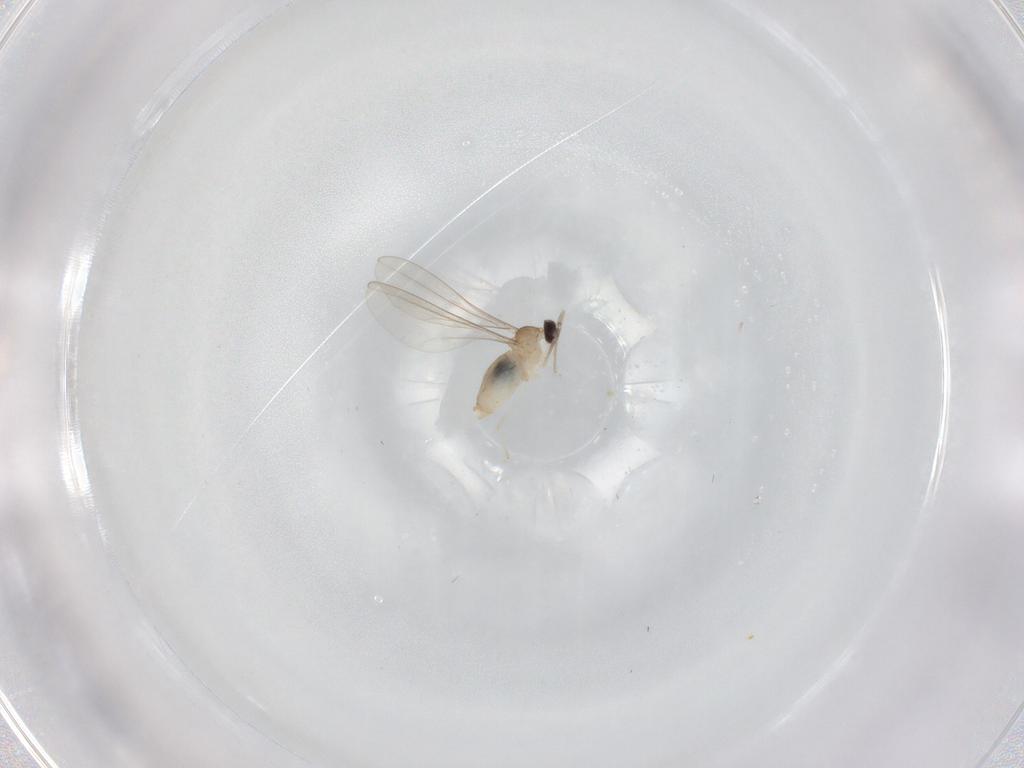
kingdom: Animalia
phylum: Arthropoda
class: Insecta
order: Diptera
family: Cecidomyiidae
